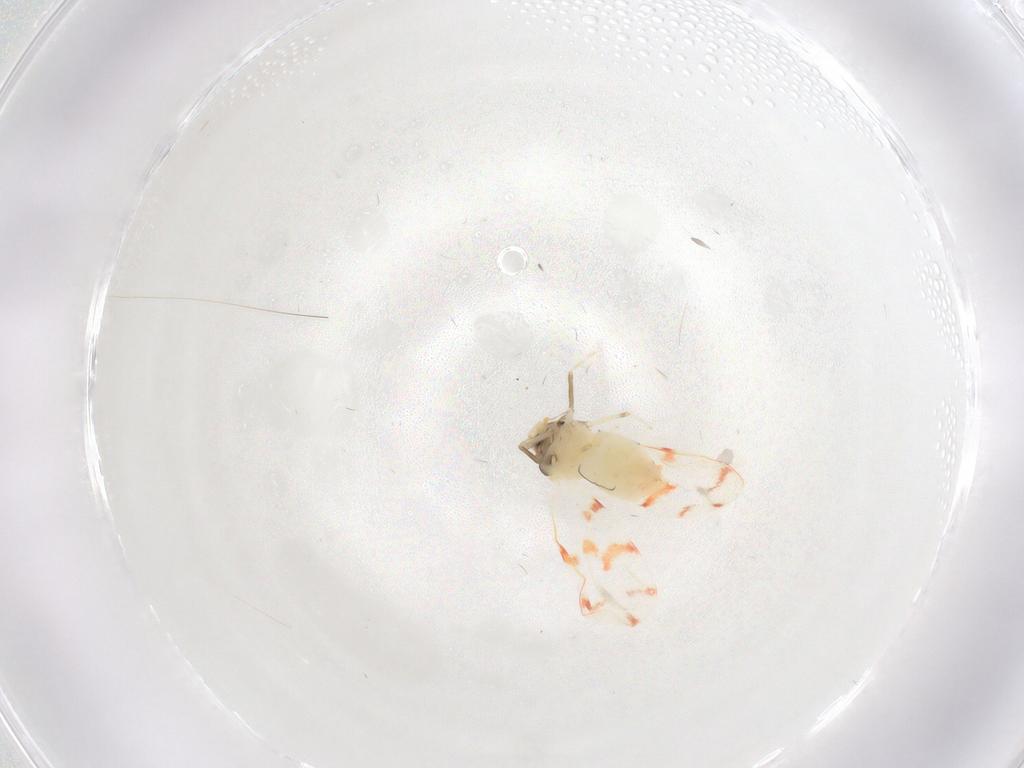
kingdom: Animalia
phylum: Arthropoda
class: Insecta
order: Hemiptera
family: Aleyrodidae
